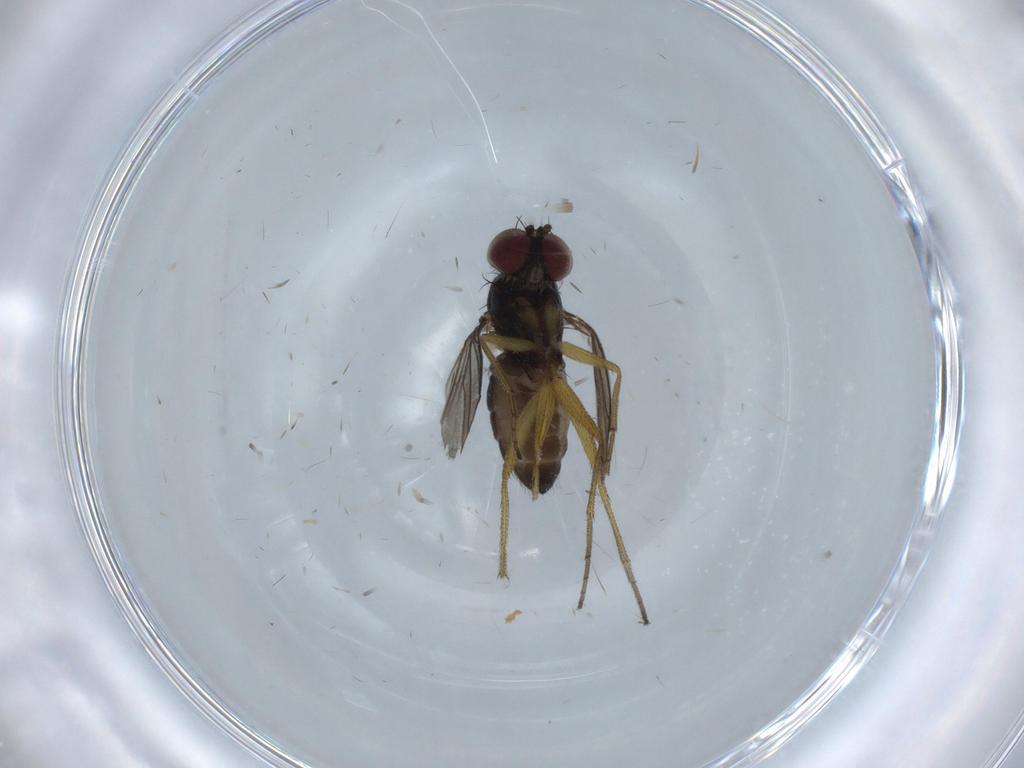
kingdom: Animalia
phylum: Arthropoda
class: Insecta
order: Diptera
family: Dolichopodidae
